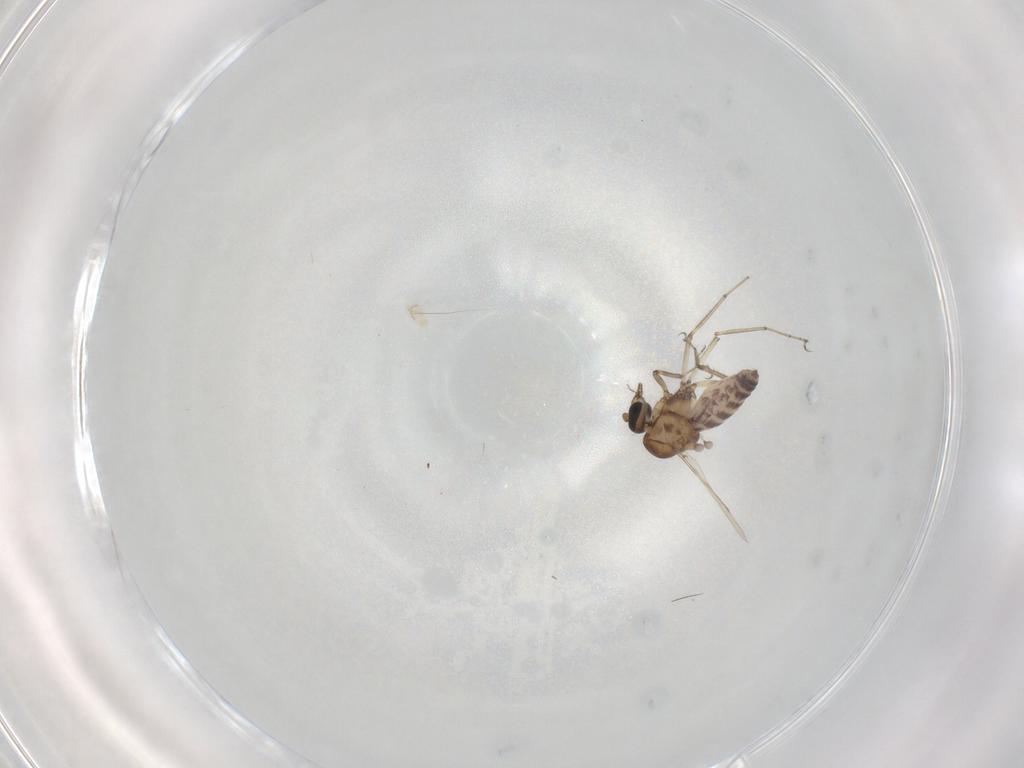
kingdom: Animalia
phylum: Arthropoda
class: Insecta
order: Diptera
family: Ceratopogonidae
